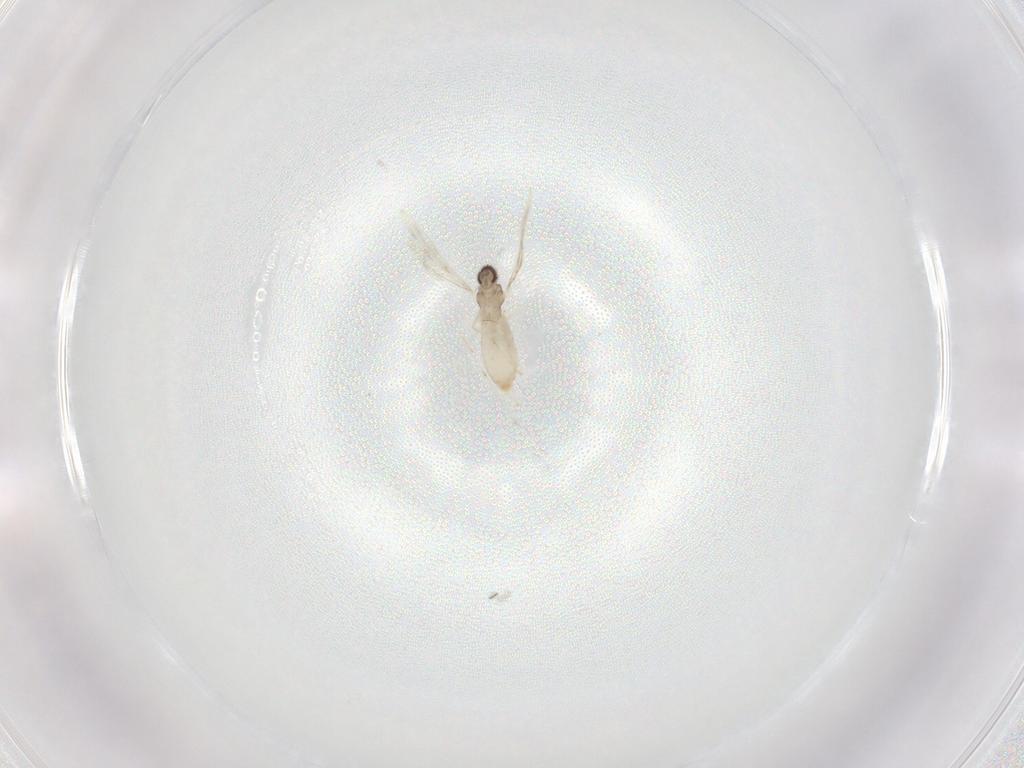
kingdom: Animalia
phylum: Arthropoda
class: Insecta
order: Diptera
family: Cecidomyiidae
